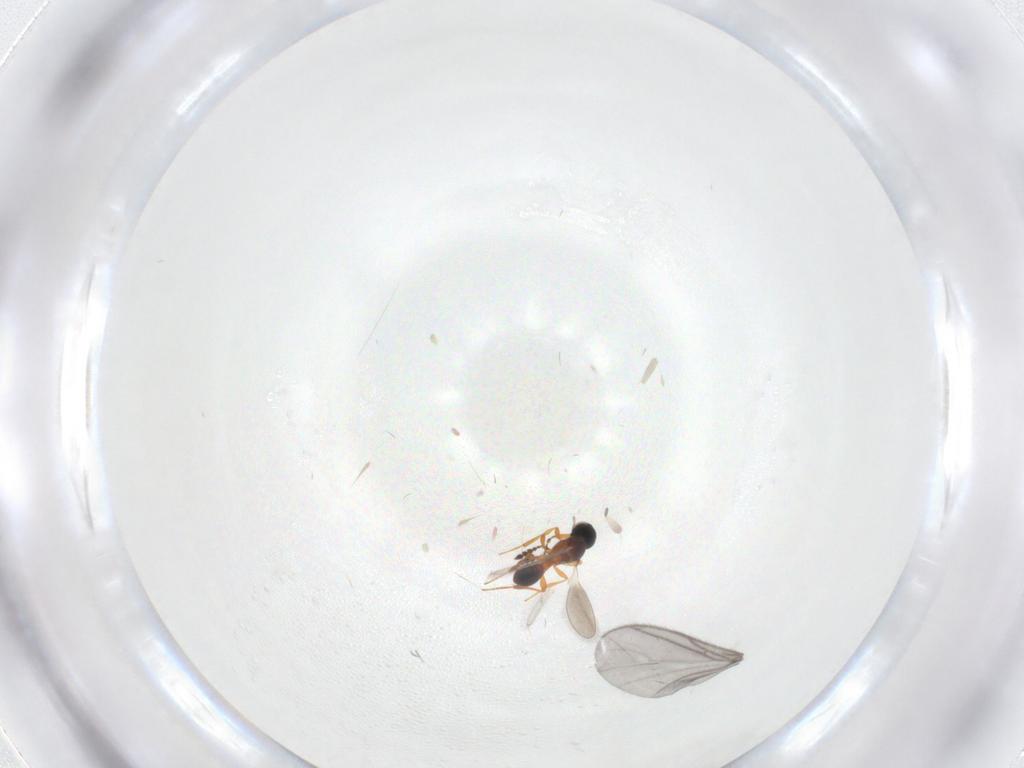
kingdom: Animalia
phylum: Arthropoda
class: Insecta
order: Hymenoptera
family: Platygastridae
